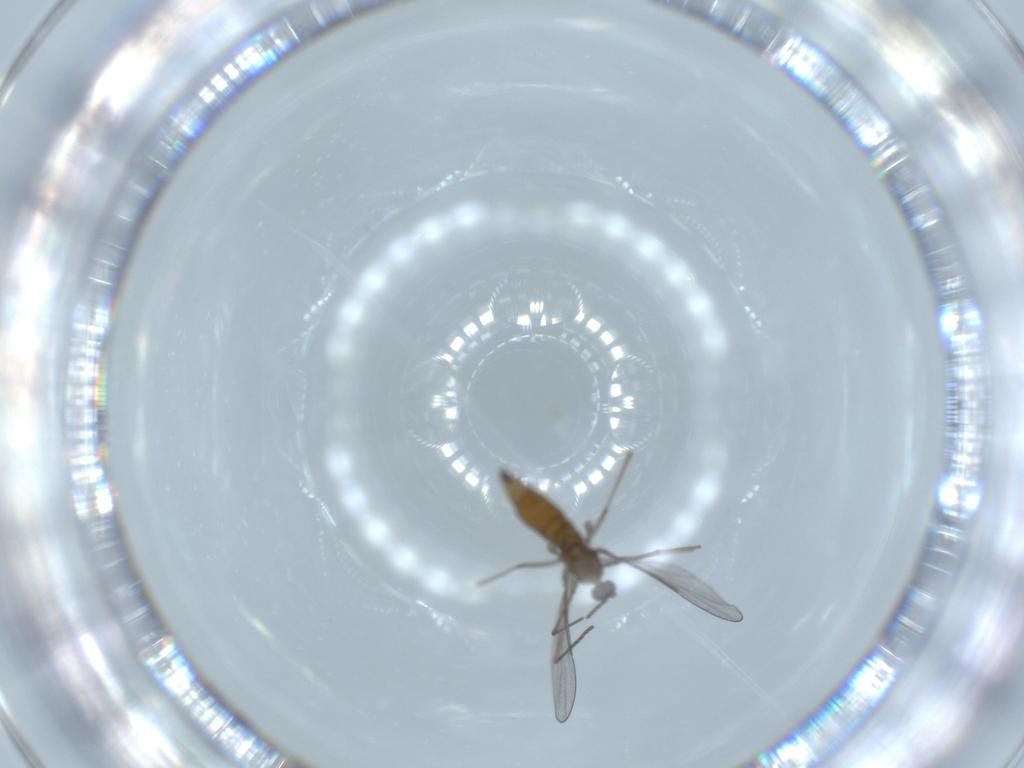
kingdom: Animalia
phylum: Arthropoda
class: Insecta
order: Diptera
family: Cecidomyiidae
